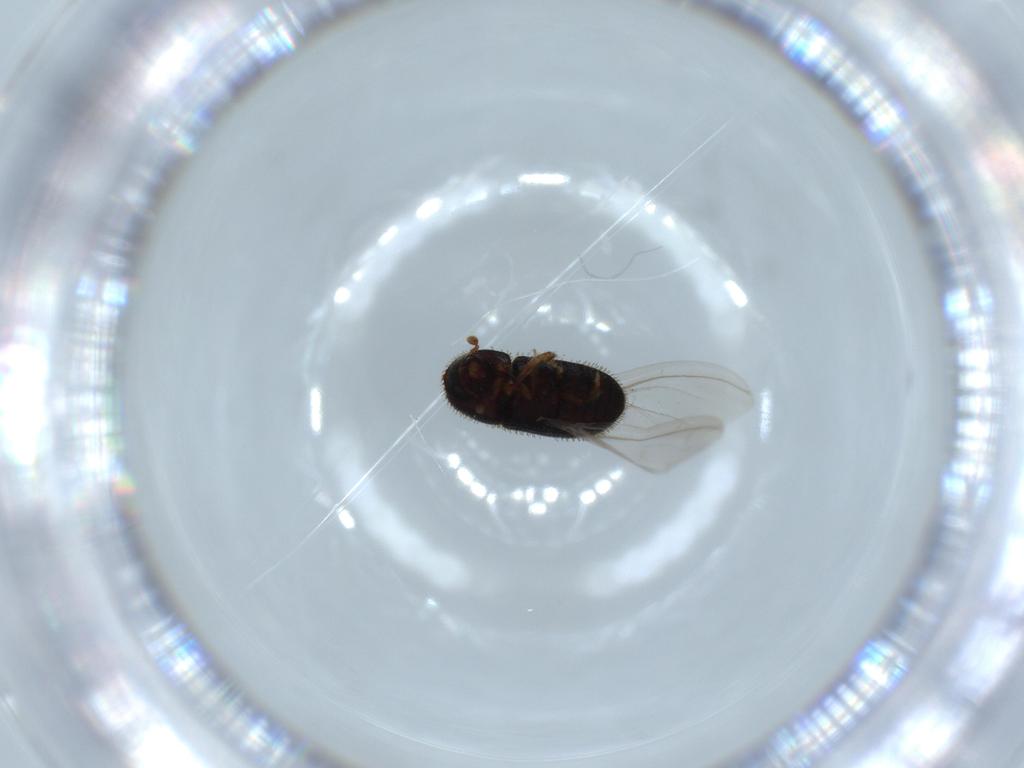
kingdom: Animalia
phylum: Arthropoda
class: Insecta
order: Coleoptera
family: Curculionidae
